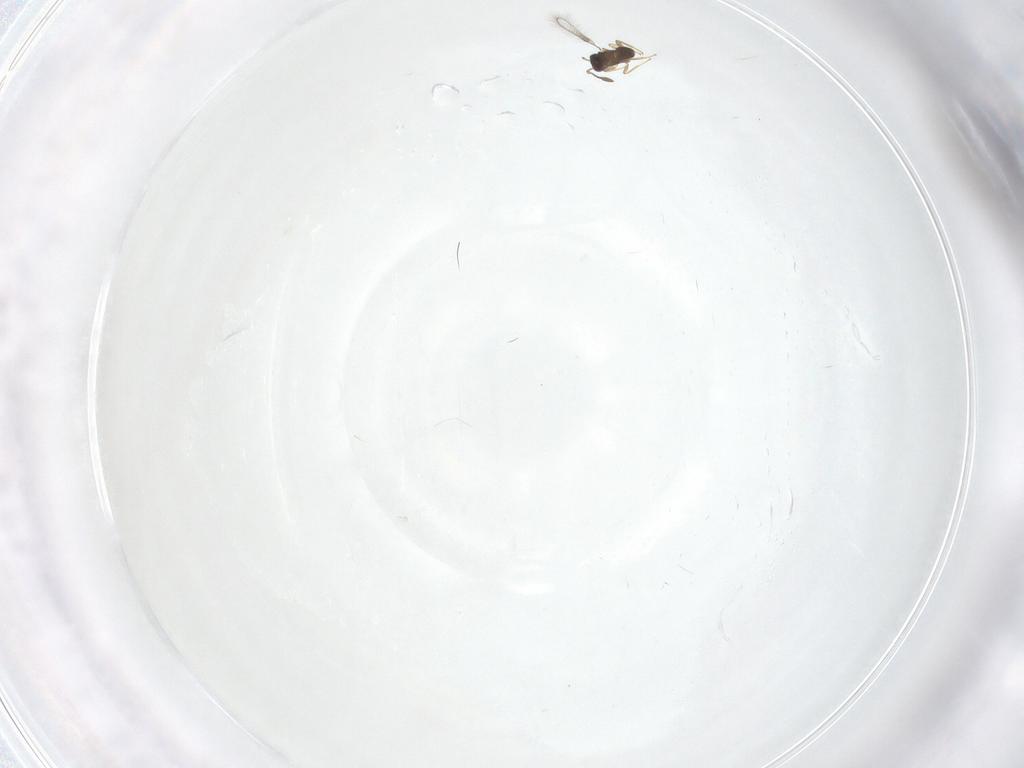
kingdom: Animalia
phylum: Arthropoda
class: Insecta
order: Hymenoptera
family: Mymaridae
